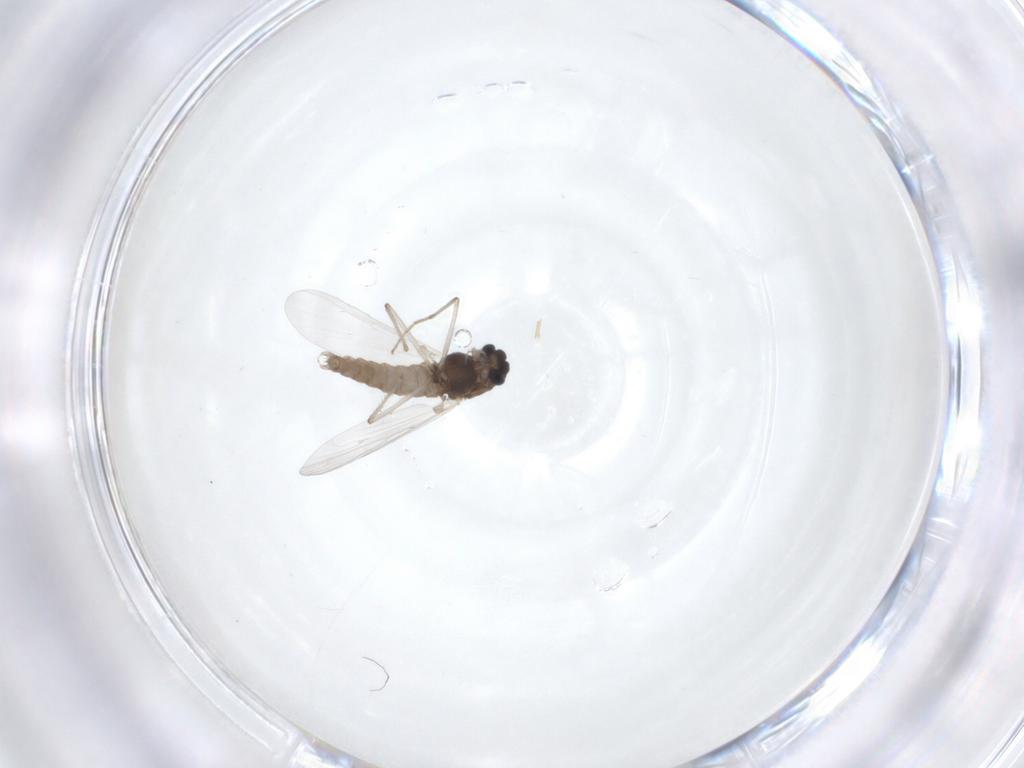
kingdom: Animalia
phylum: Arthropoda
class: Insecta
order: Diptera
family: Chironomidae
